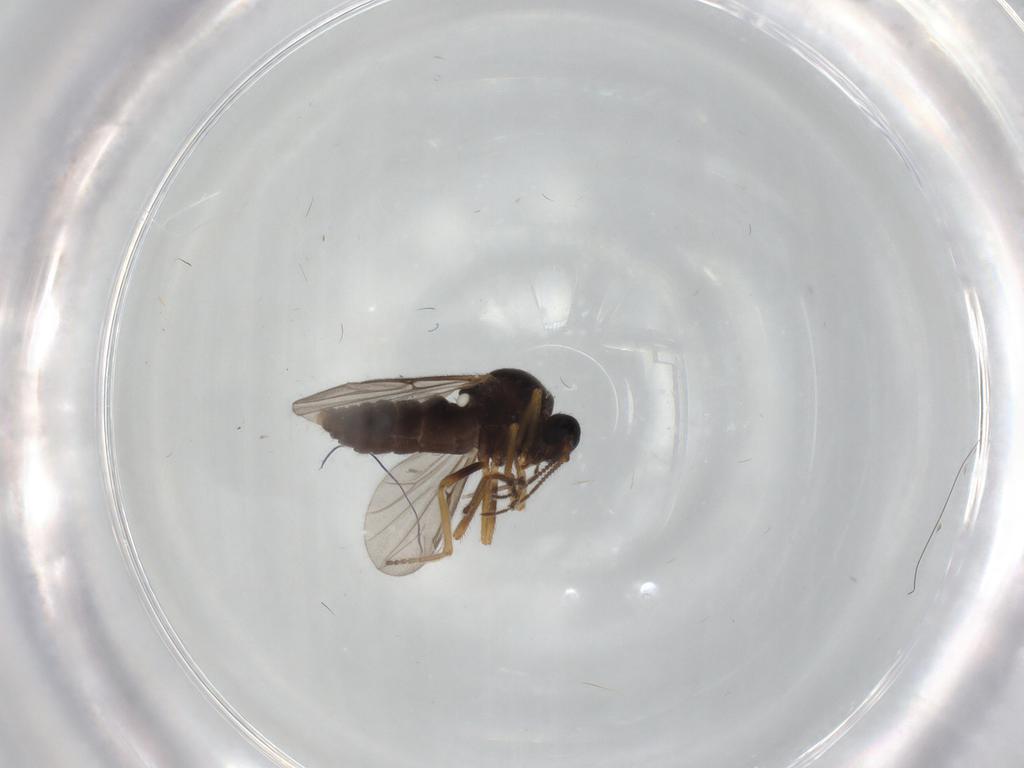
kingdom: Animalia
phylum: Arthropoda
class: Insecta
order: Diptera
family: Ceratopogonidae
